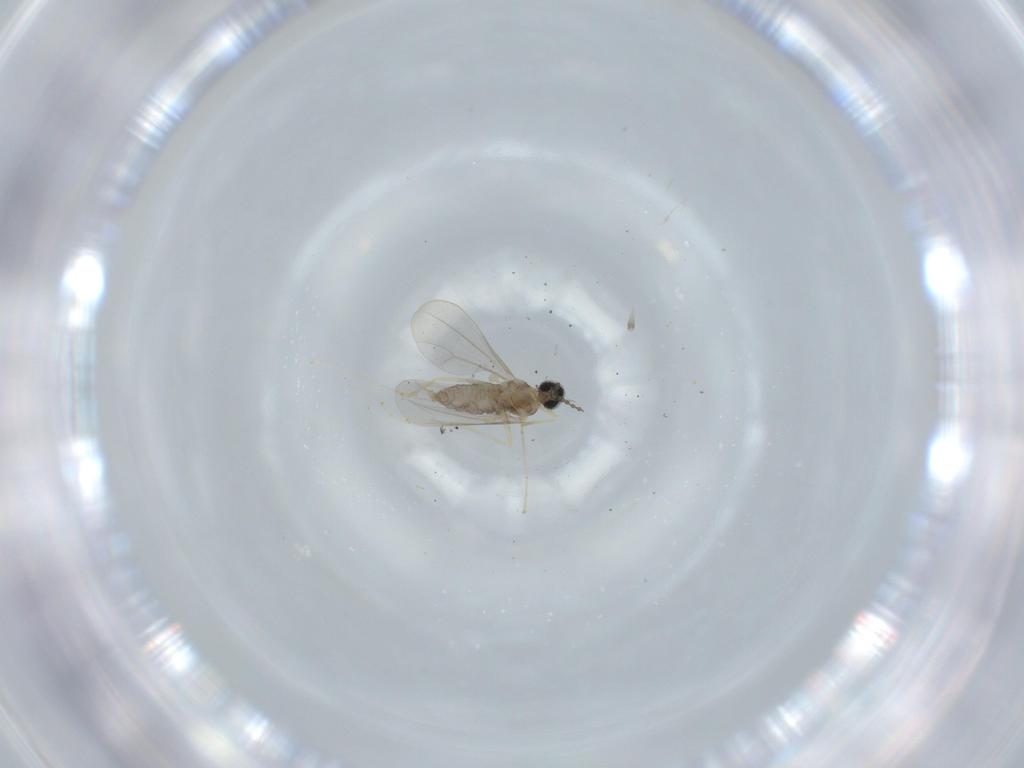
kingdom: Animalia
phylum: Arthropoda
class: Insecta
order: Diptera
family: Cecidomyiidae
